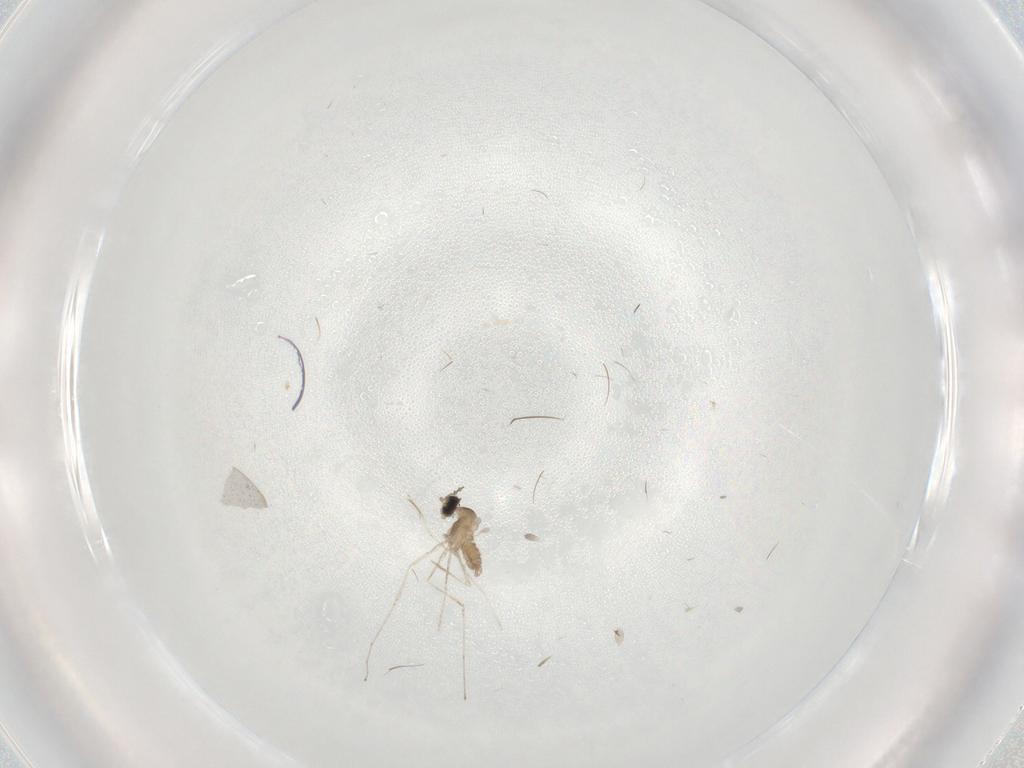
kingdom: Animalia
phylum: Arthropoda
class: Insecta
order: Diptera
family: Cecidomyiidae
